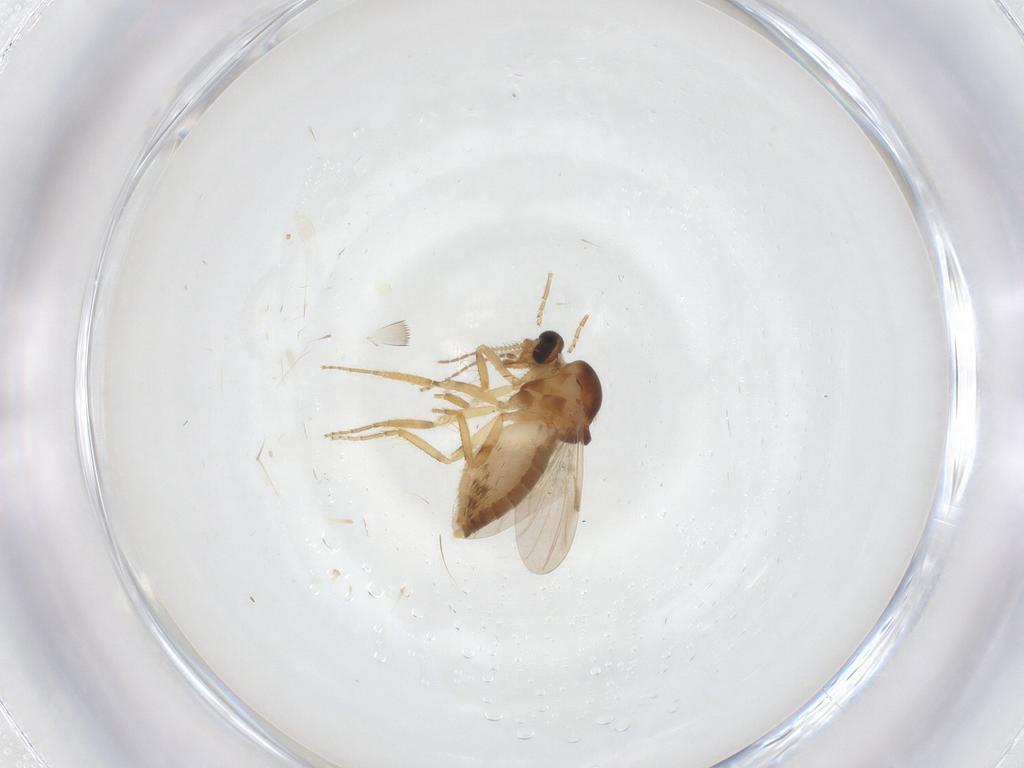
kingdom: Animalia
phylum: Arthropoda
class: Insecta
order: Diptera
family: Ceratopogonidae
